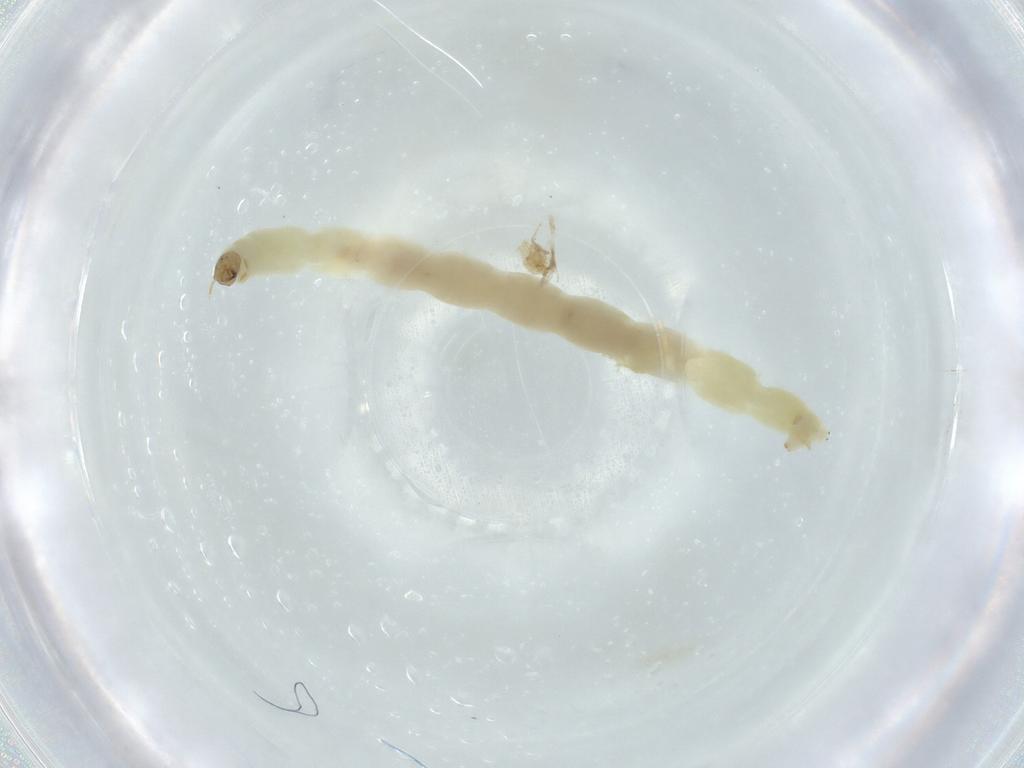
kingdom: Animalia
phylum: Arthropoda
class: Insecta
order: Diptera
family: Chironomidae
